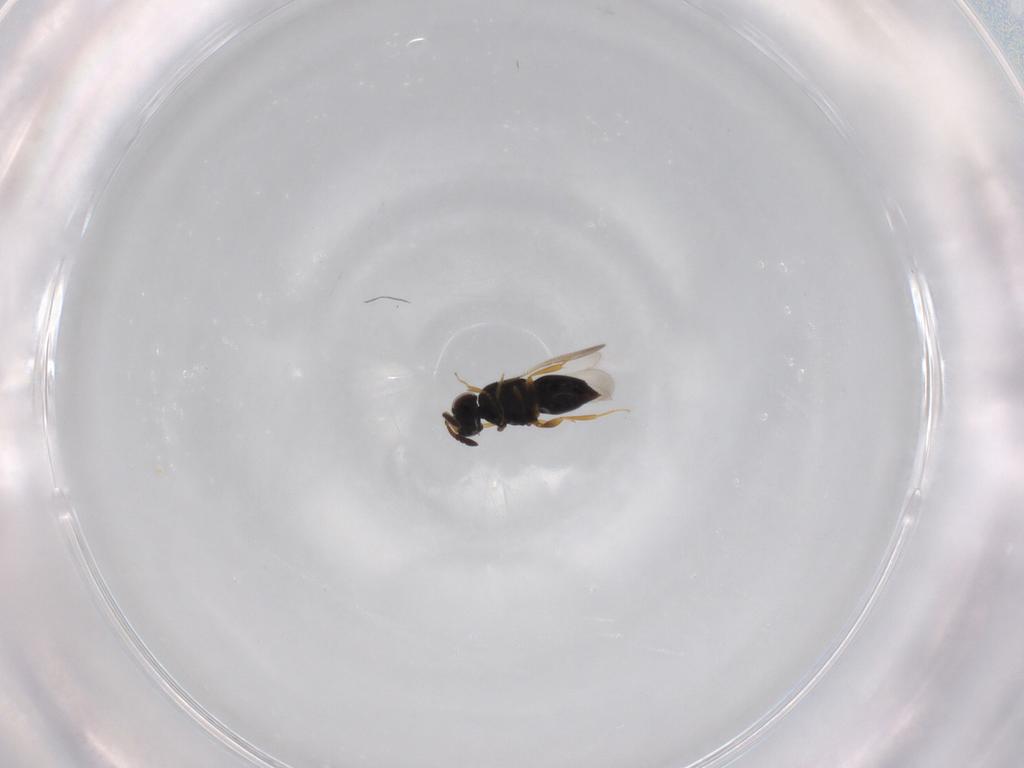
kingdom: Animalia
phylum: Arthropoda
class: Insecta
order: Hymenoptera
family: Ceraphronidae
